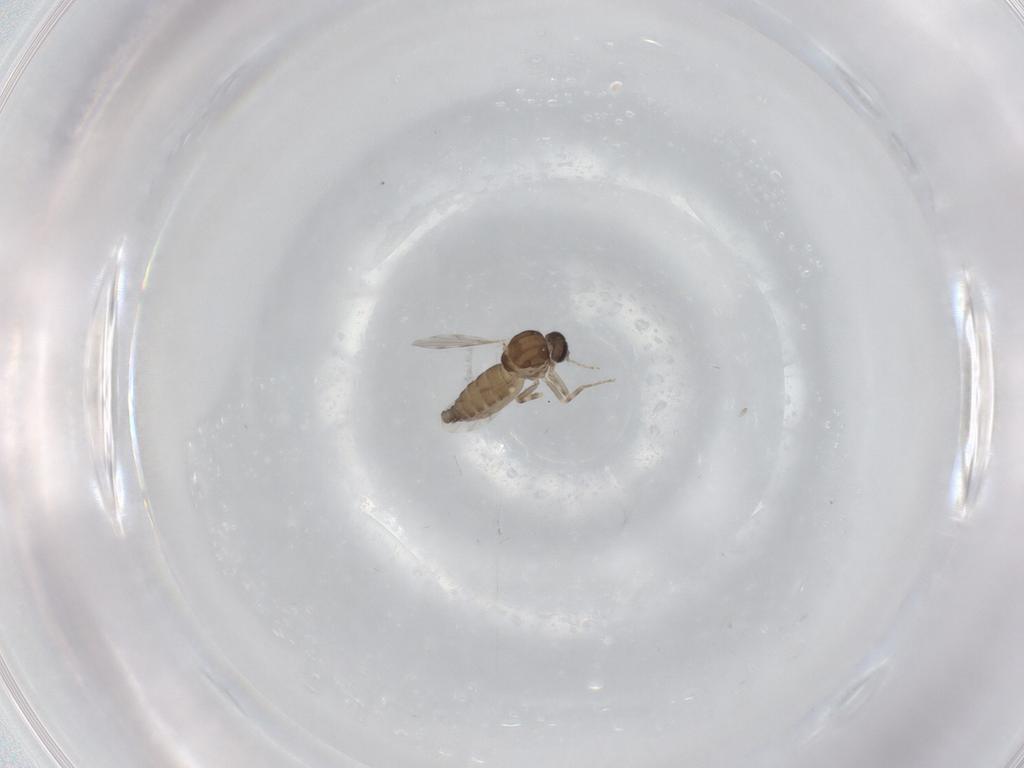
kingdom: Animalia
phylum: Arthropoda
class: Insecta
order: Diptera
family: Ceratopogonidae
